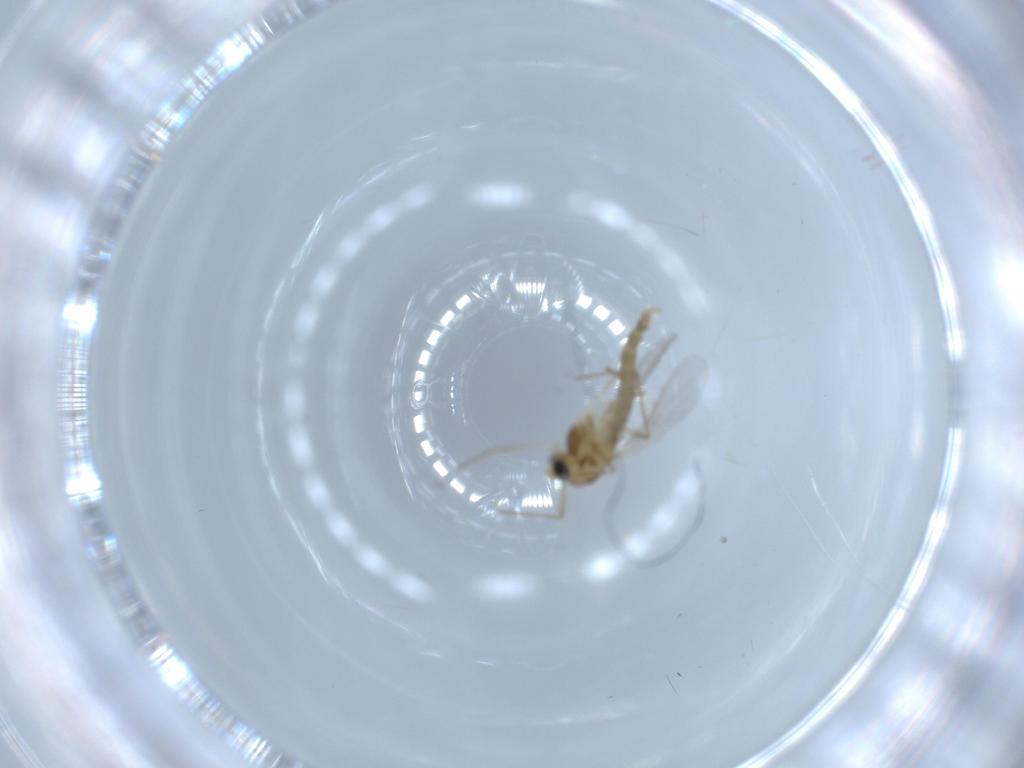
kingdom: Animalia
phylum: Arthropoda
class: Insecta
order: Diptera
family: Chironomidae
